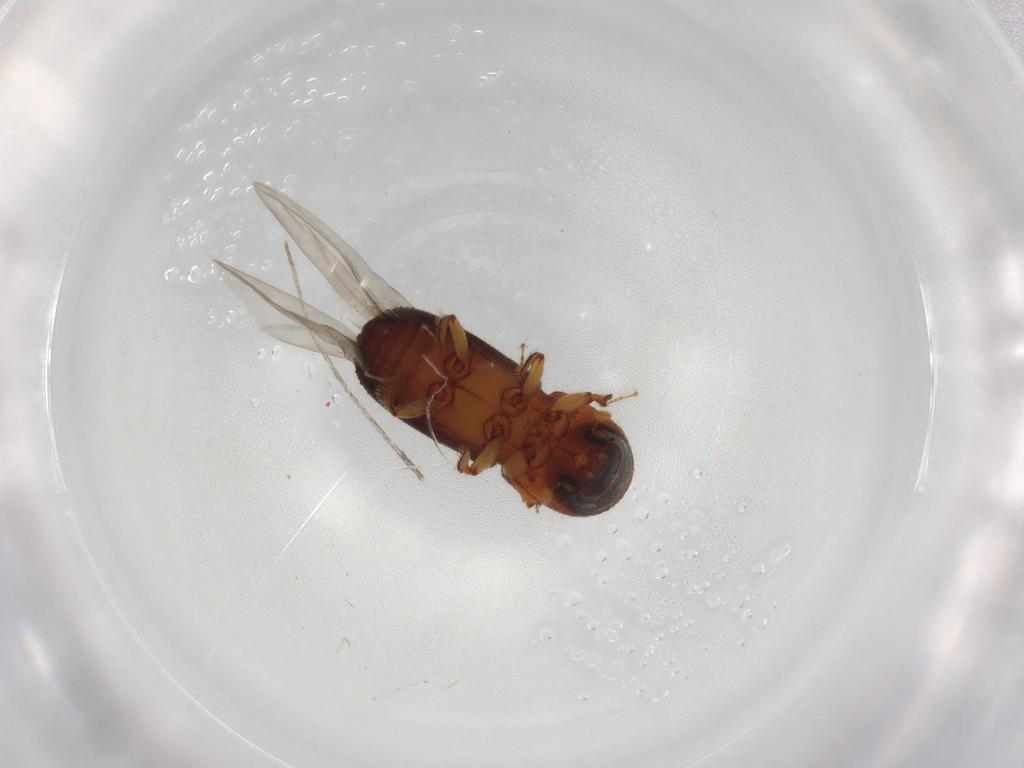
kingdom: Animalia
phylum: Arthropoda
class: Insecta
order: Coleoptera
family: Curculionidae
